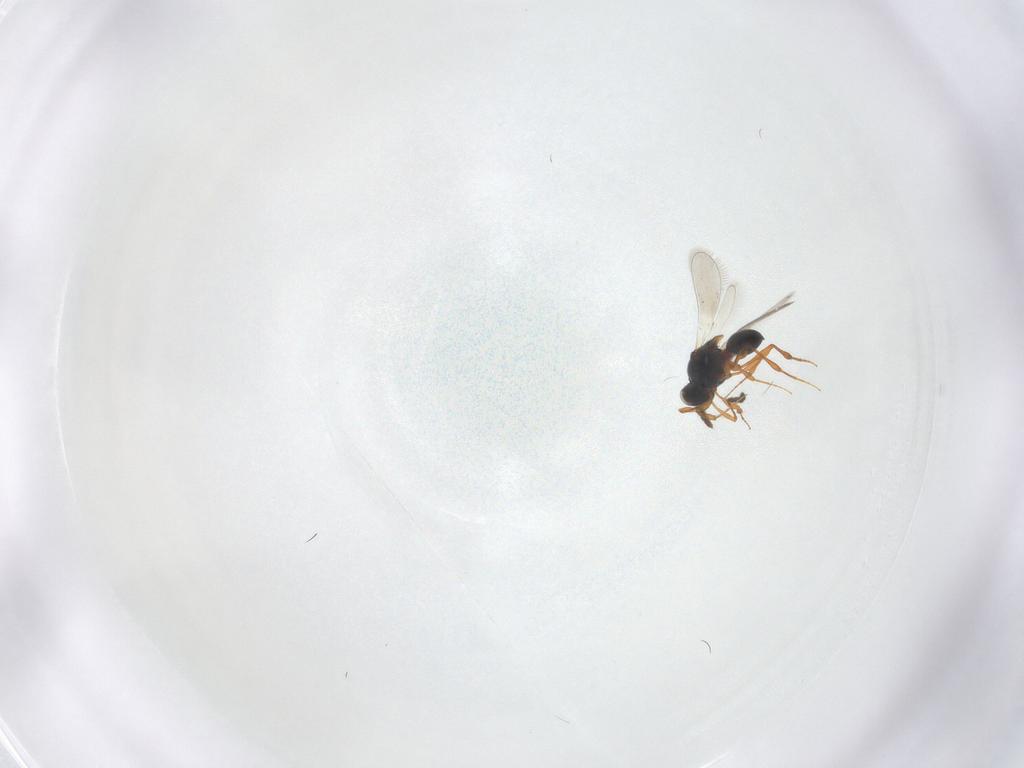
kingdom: Animalia
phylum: Arthropoda
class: Insecta
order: Hymenoptera
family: Platygastridae
